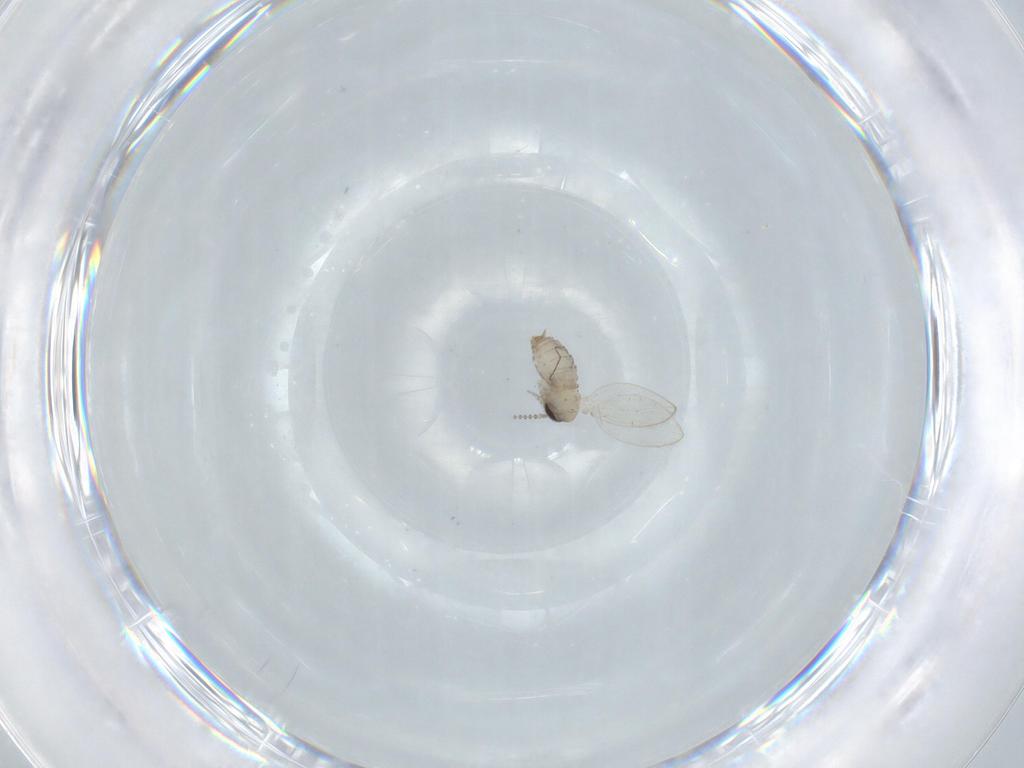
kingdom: Animalia
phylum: Arthropoda
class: Insecta
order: Diptera
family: Psychodidae
